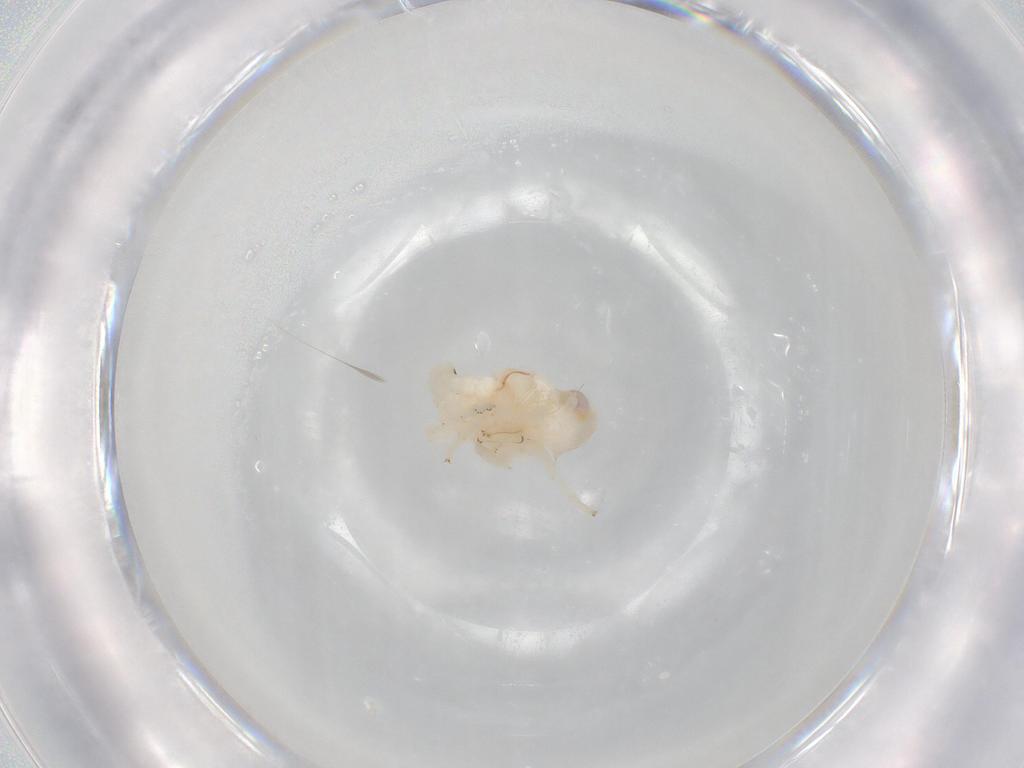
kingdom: Animalia
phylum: Arthropoda
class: Insecta
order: Hemiptera
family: Nogodinidae
